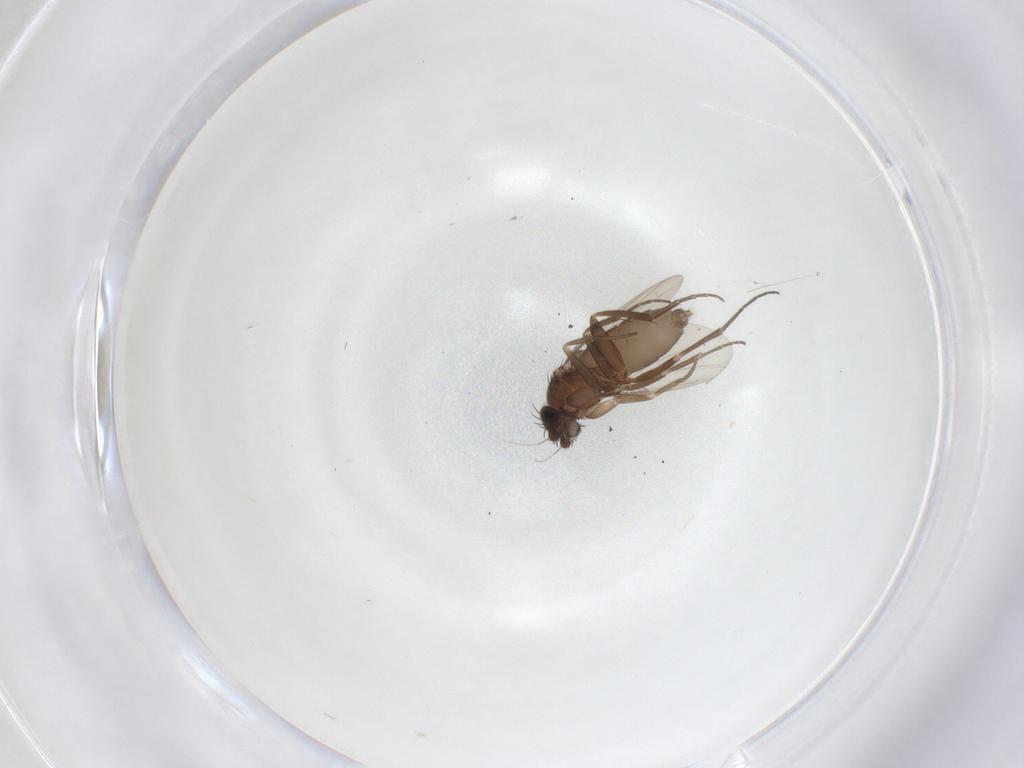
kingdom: Animalia
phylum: Arthropoda
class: Insecta
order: Diptera
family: Phoridae
